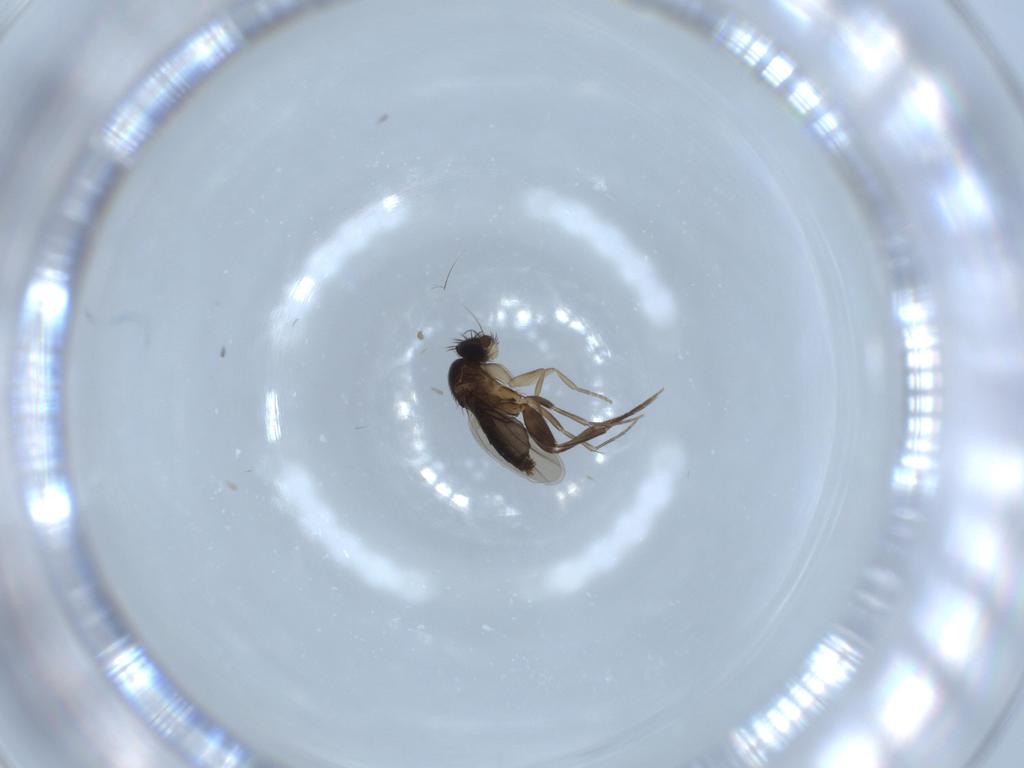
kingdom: Animalia
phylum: Arthropoda
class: Insecta
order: Diptera
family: Phoridae
